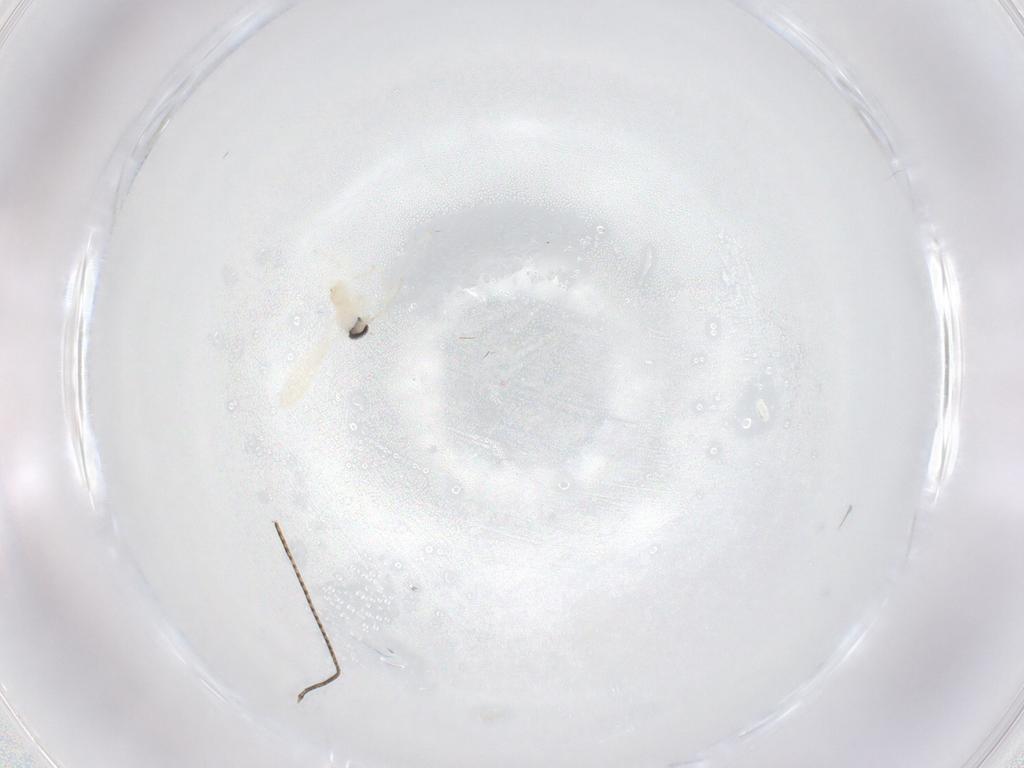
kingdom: Animalia
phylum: Arthropoda
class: Insecta
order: Diptera
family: Cecidomyiidae
